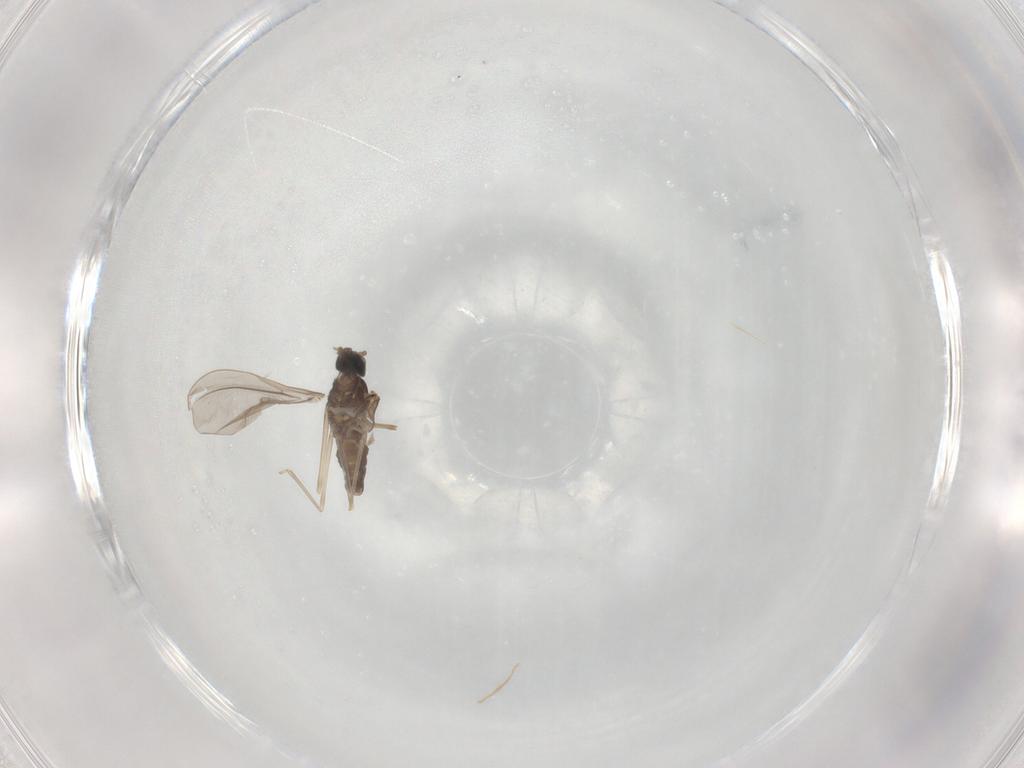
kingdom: Animalia
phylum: Arthropoda
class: Insecta
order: Diptera
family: Cecidomyiidae
